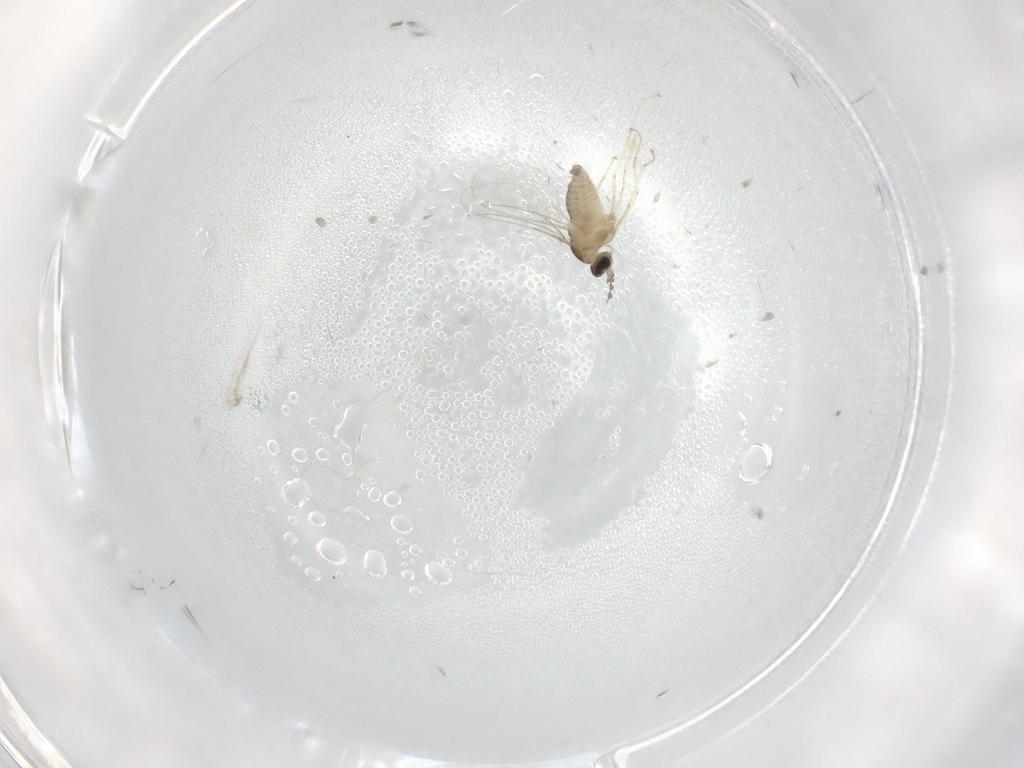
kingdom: Animalia
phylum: Arthropoda
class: Insecta
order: Diptera
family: Cecidomyiidae
